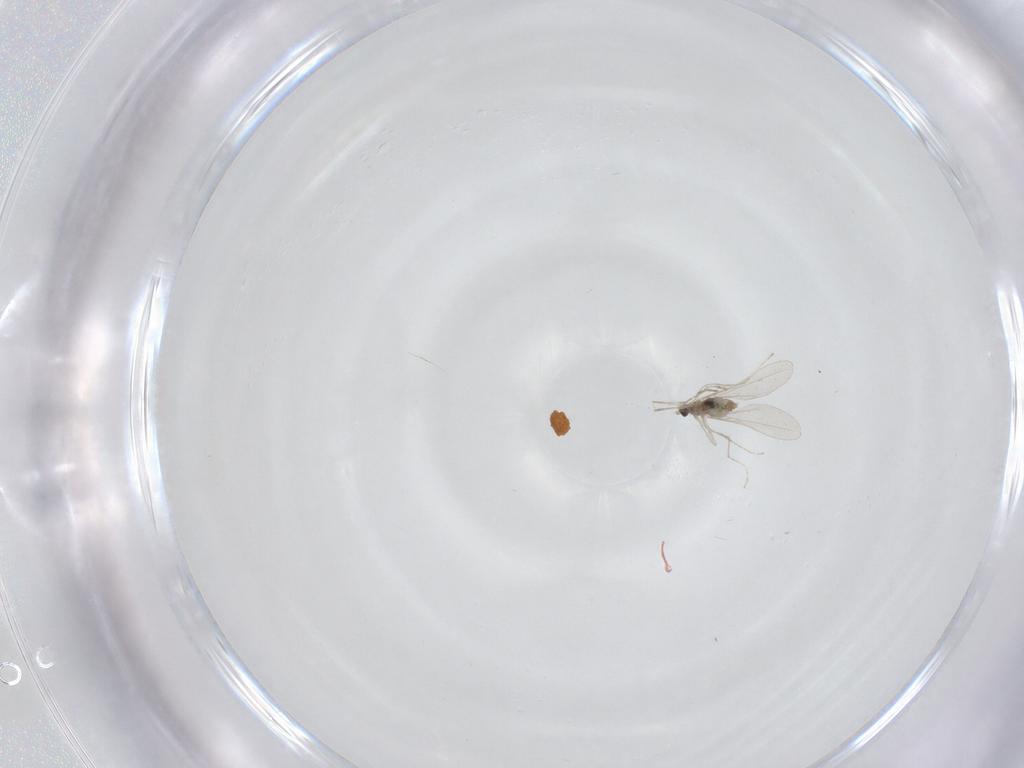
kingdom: Animalia
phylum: Arthropoda
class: Insecta
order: Diptera
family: Cecidomyiidae
